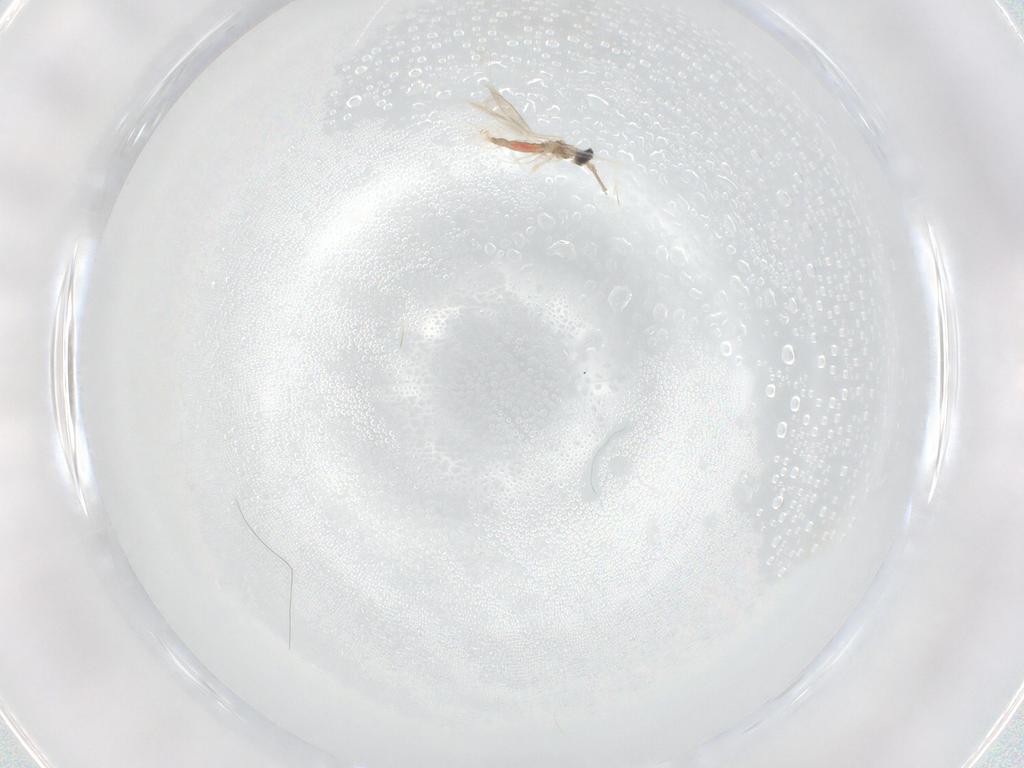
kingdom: Animalia
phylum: Arthropoda
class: Insecta
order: Diptera
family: Cecidomyiidae
